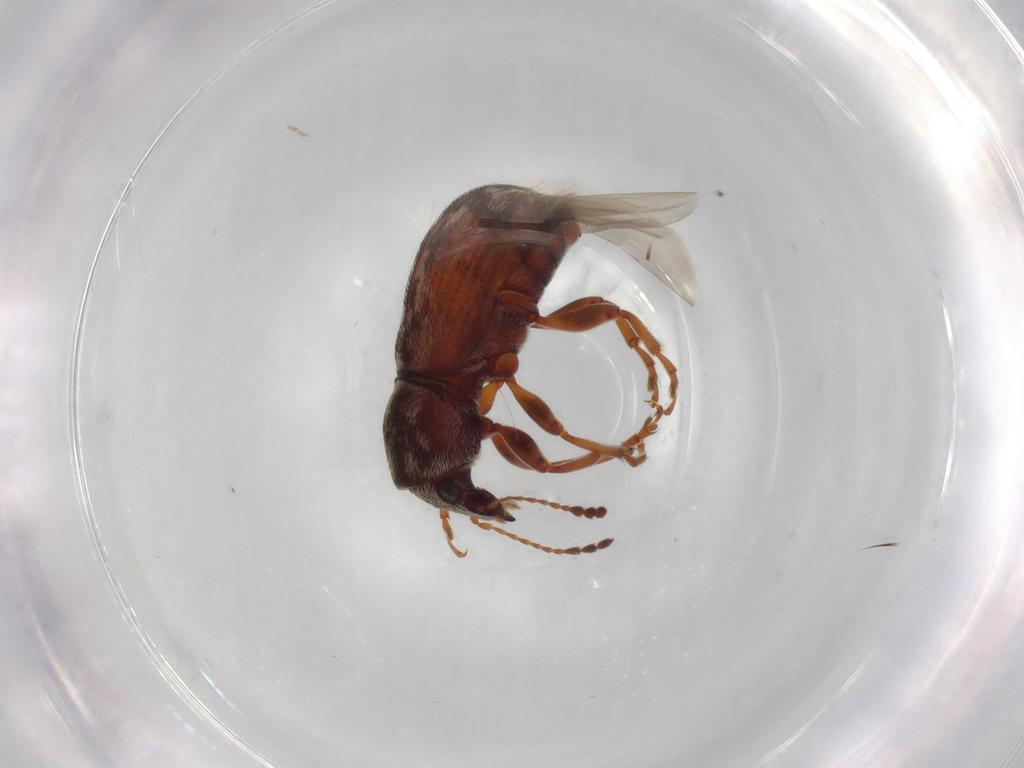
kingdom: Animalia
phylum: Arthropoda
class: Insecta
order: Coleoptera
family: Anthribidae
